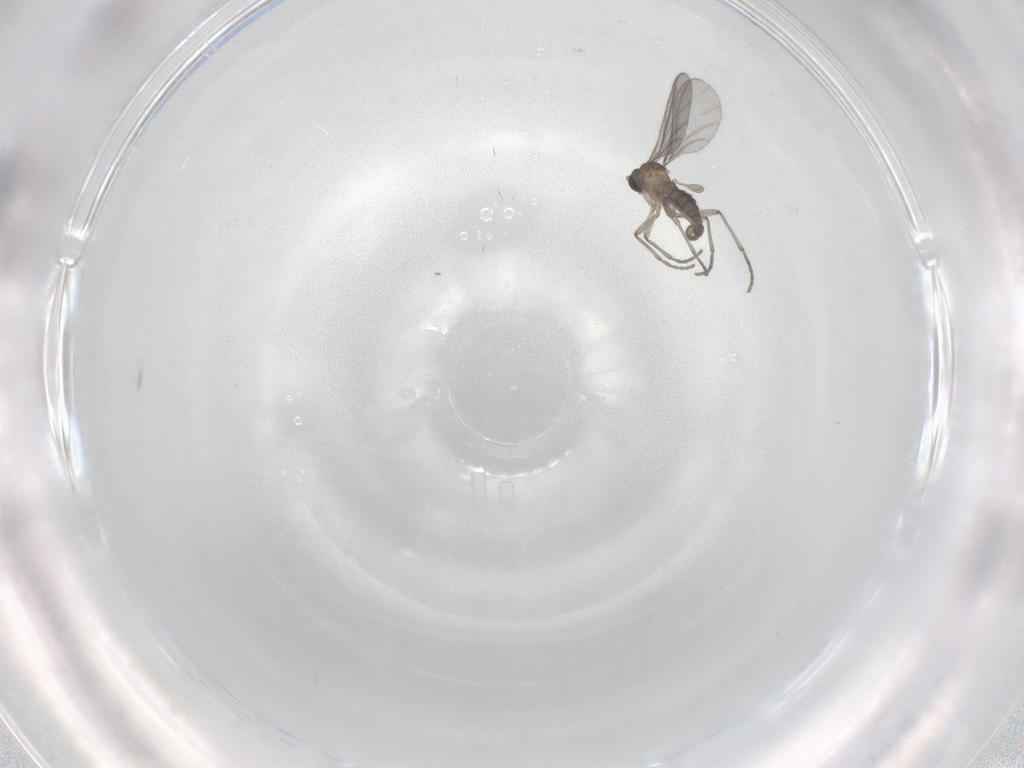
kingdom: Animalia
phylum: Arthropoda
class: Insecta
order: Diptera
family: Sciaridae
